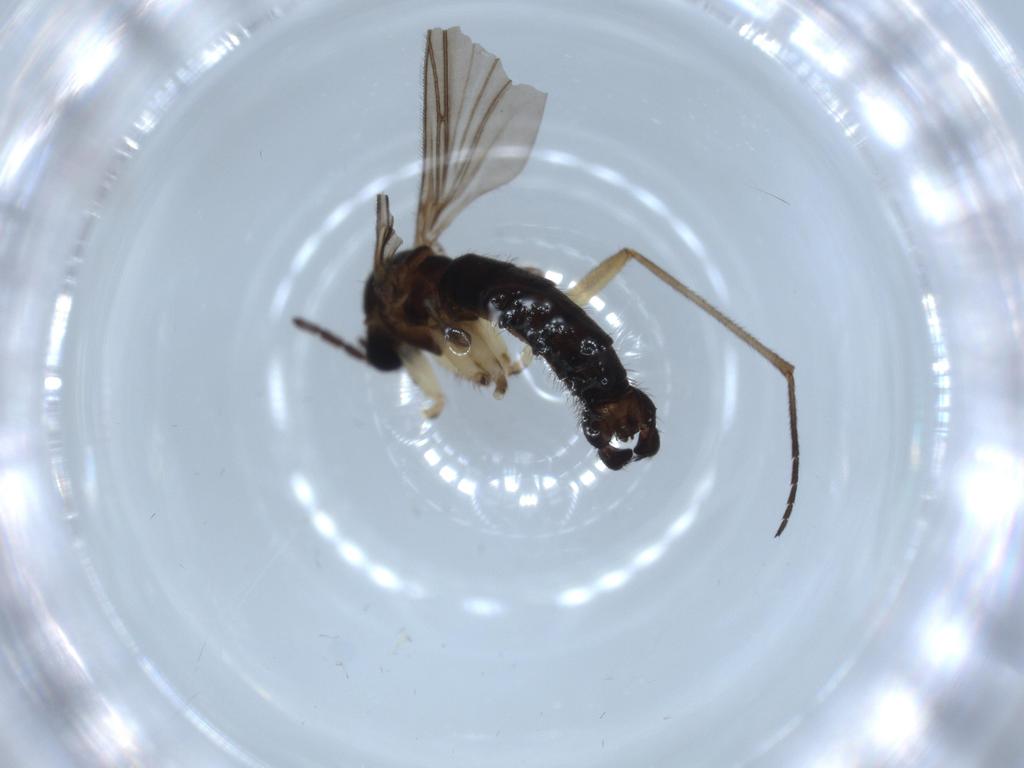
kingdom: Animalia
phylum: Arthropoda
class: Insecta
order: Diptera
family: Sciaridae
